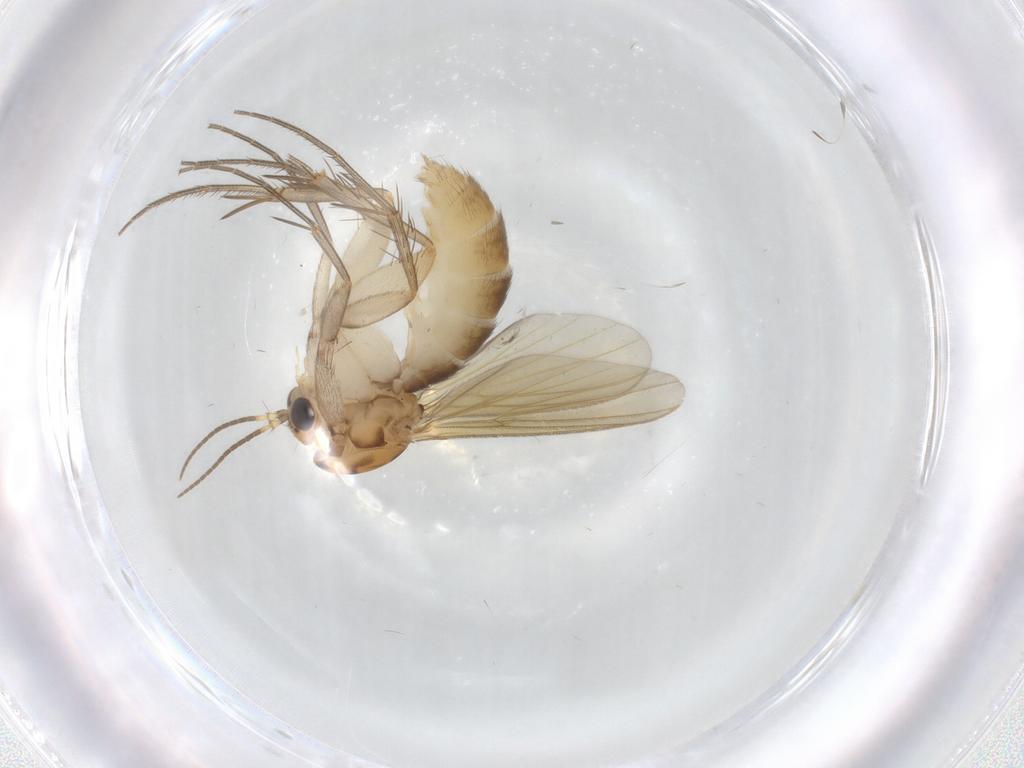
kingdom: Animalia
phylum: Arthropoda
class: Insecta
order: Diptera
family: Mycetophilidae
